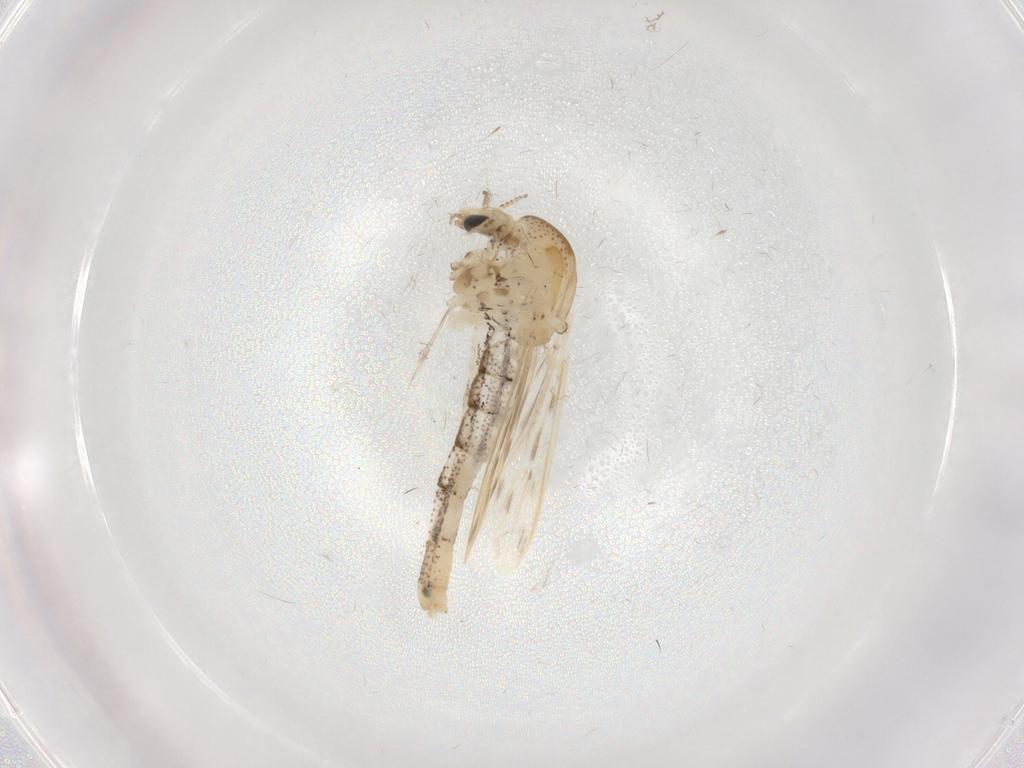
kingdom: Animalia
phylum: Arthropoda
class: Insecta
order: Diptera
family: Chaoboridae
